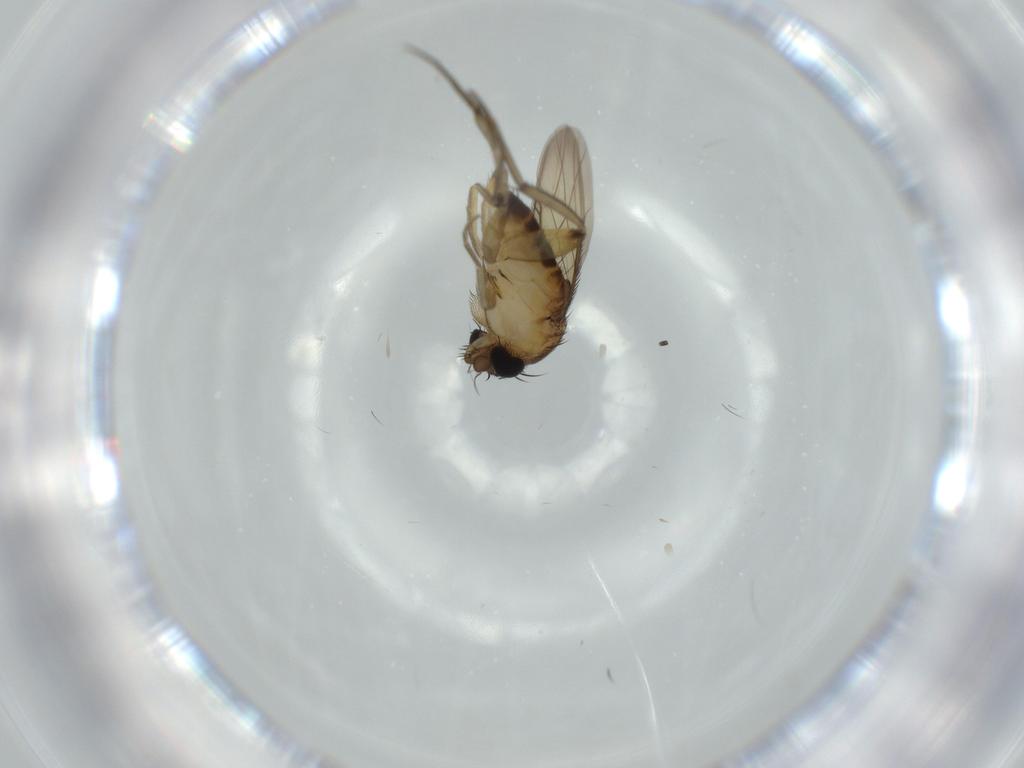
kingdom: Animalia
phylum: Arthropoda
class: Insecta
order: Diptera
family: Phoridae
